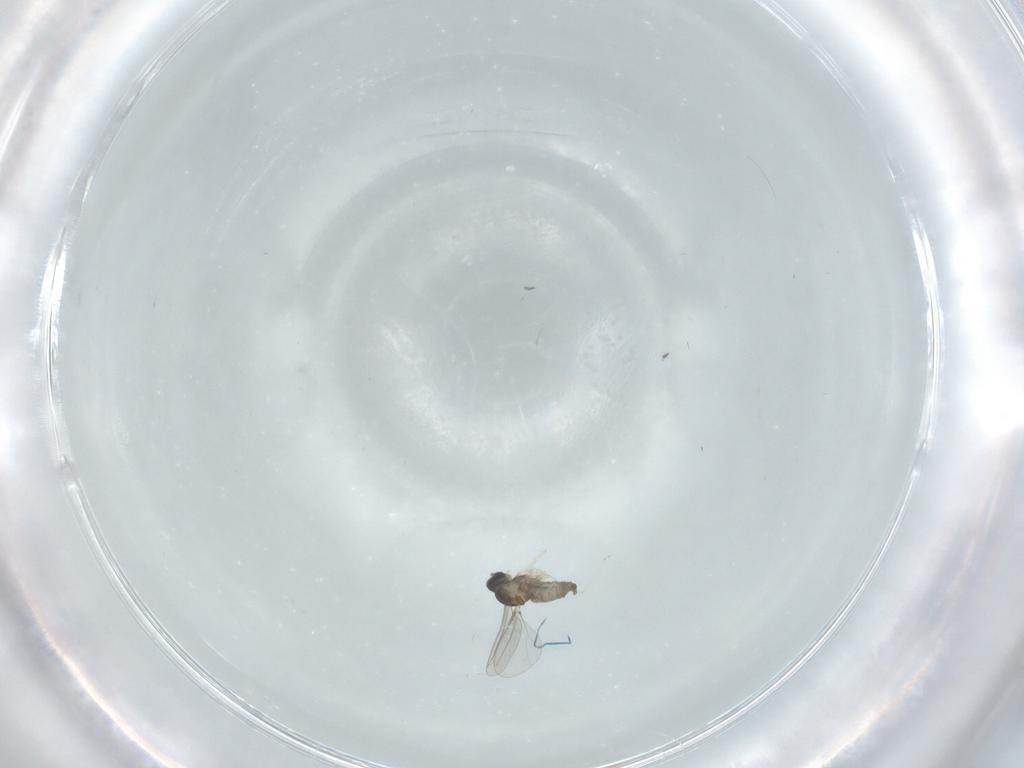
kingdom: Animalia
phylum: Arthropoda
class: Insecta
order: Diptera
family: Cecidomyiidae
